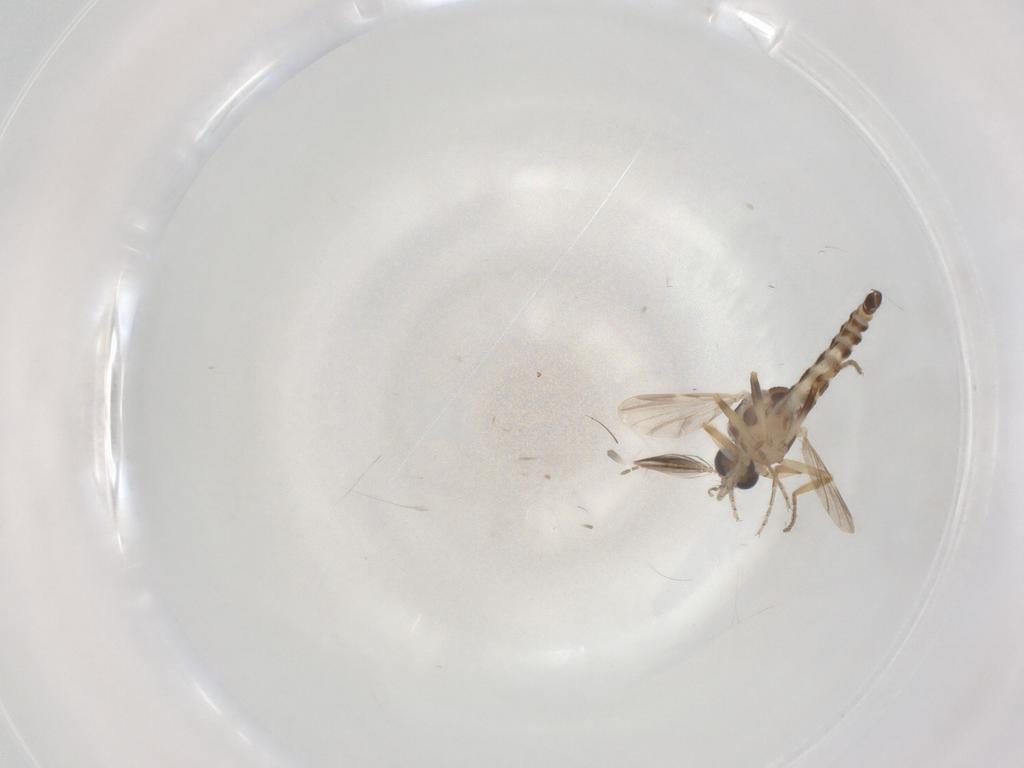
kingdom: Animalia
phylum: Arthropoda
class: Insecta
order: Diptera
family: Ceratopogonidae
